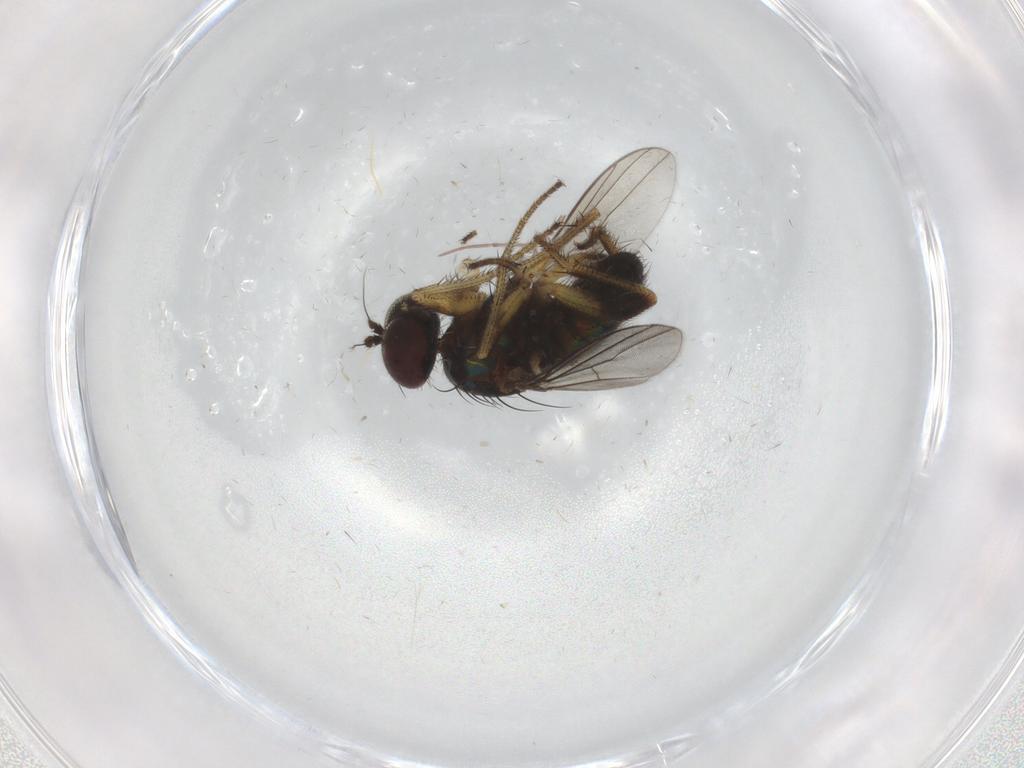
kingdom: Animalia
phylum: Arthropoda
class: Insecta
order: Diptera
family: Dolichopodidae
